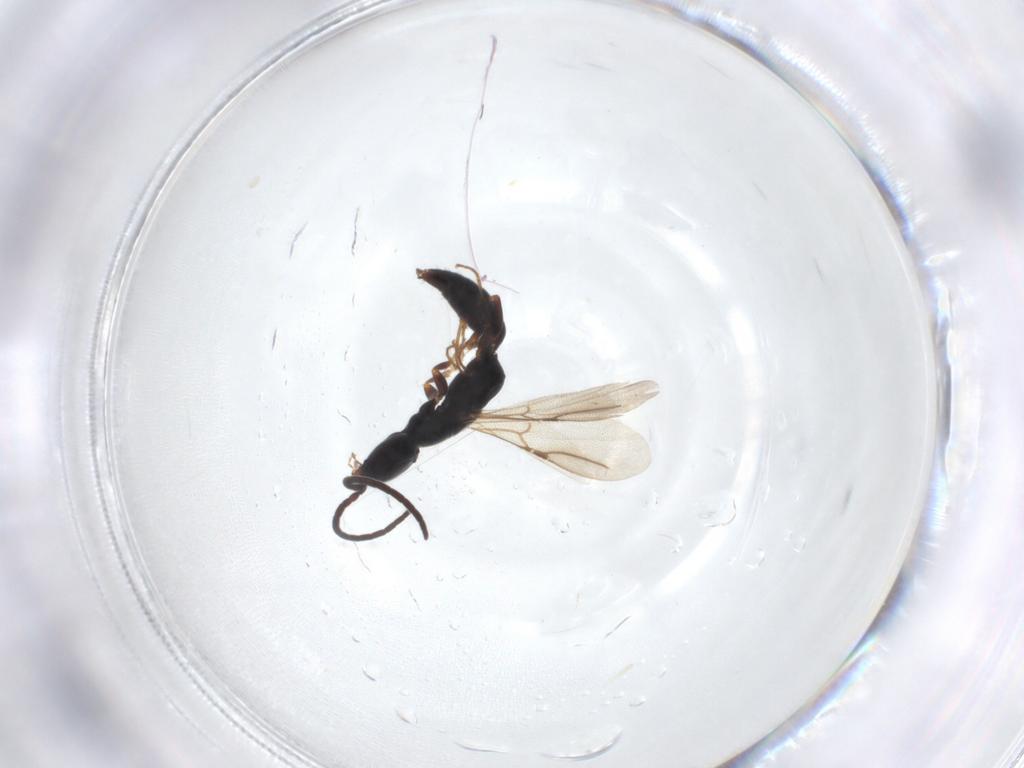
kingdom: Animalia
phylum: Arthropoda
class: Insecta
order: Hymenoptera
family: Bethylidae
